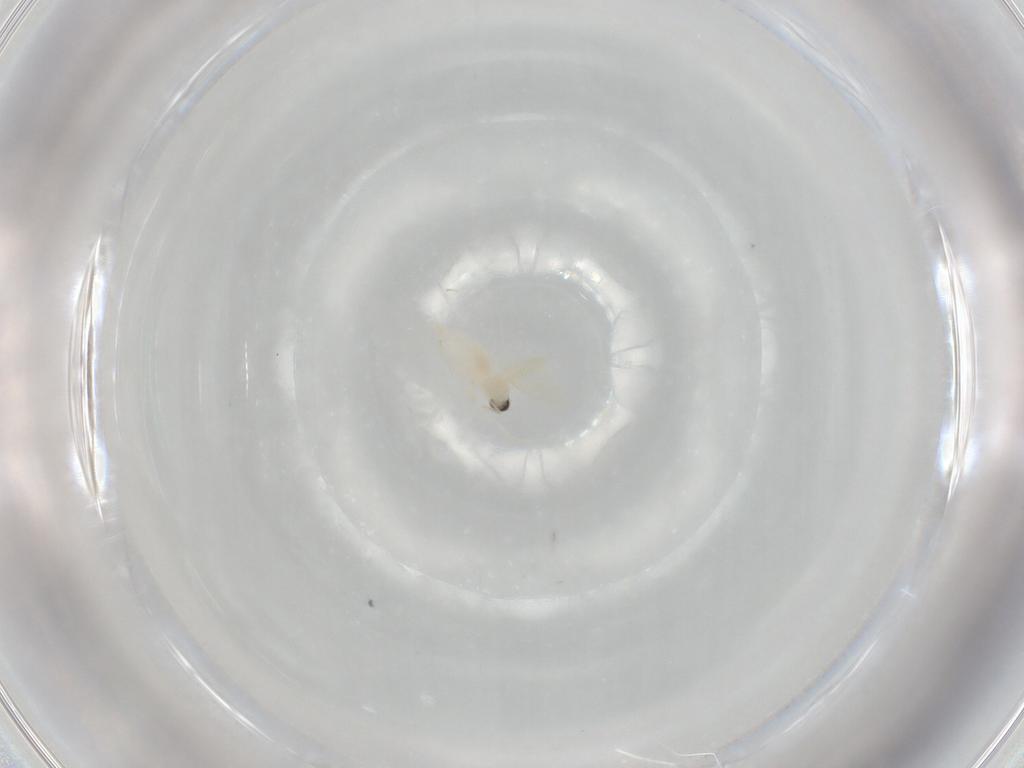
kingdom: Animalia
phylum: Arthropoda
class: Insecta
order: Diptera
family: Cecidomyiidae
